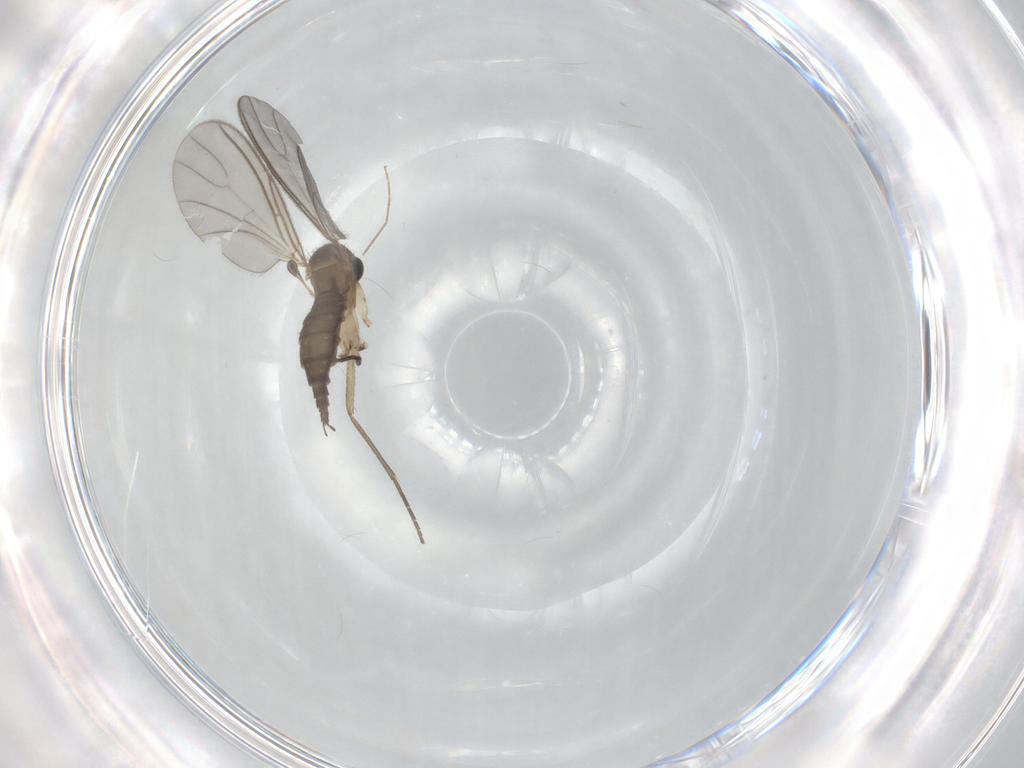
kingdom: Animalia
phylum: Arthropoda
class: Insecta
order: Diptera
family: Sciaridae
